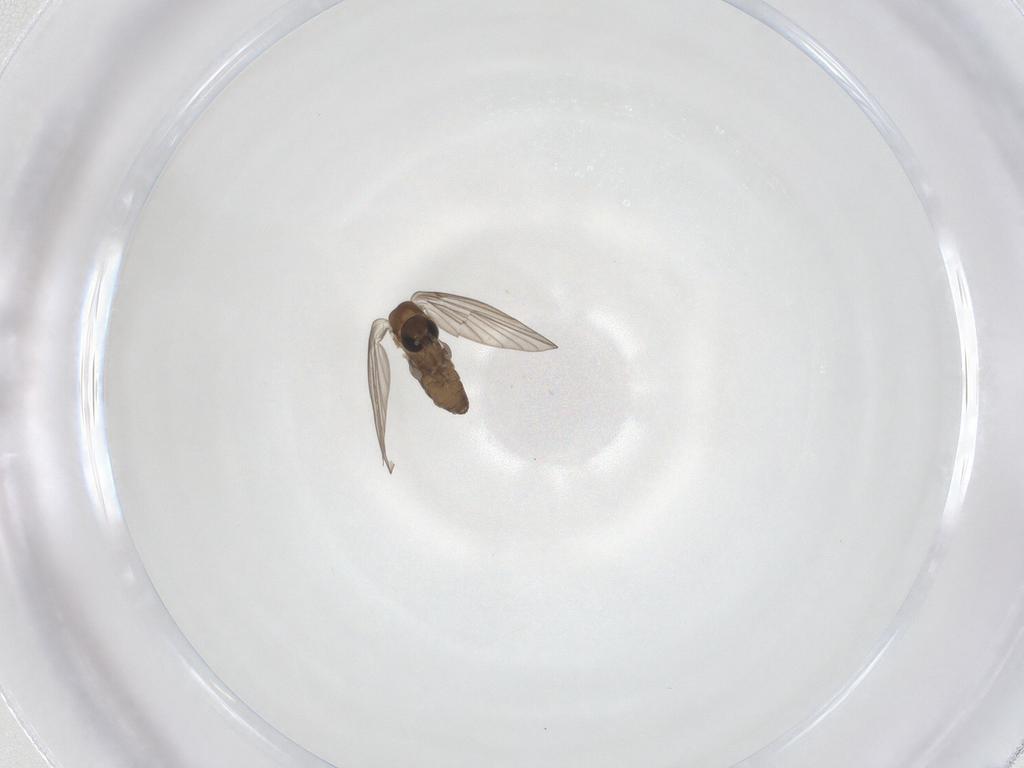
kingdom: Animalia
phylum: Arthropoda
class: Insecta
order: Diptera
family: Psychodidae
